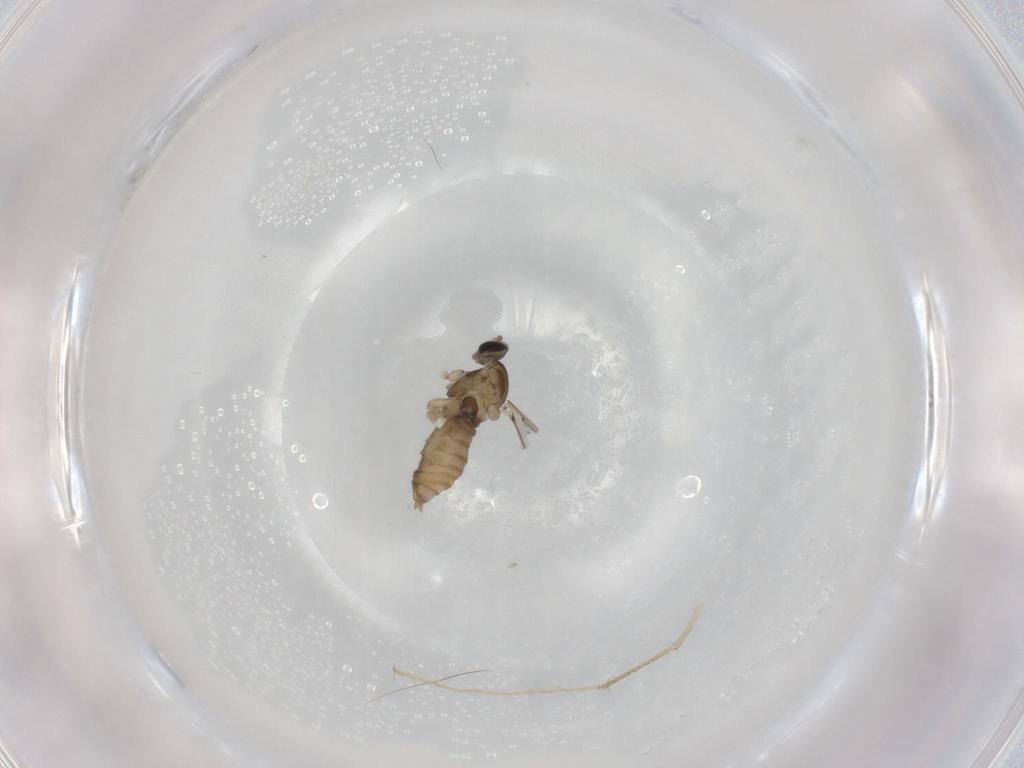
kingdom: Animalia
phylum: Arthropoda
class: Insecta
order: Diptera
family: Cecidomyiidae
